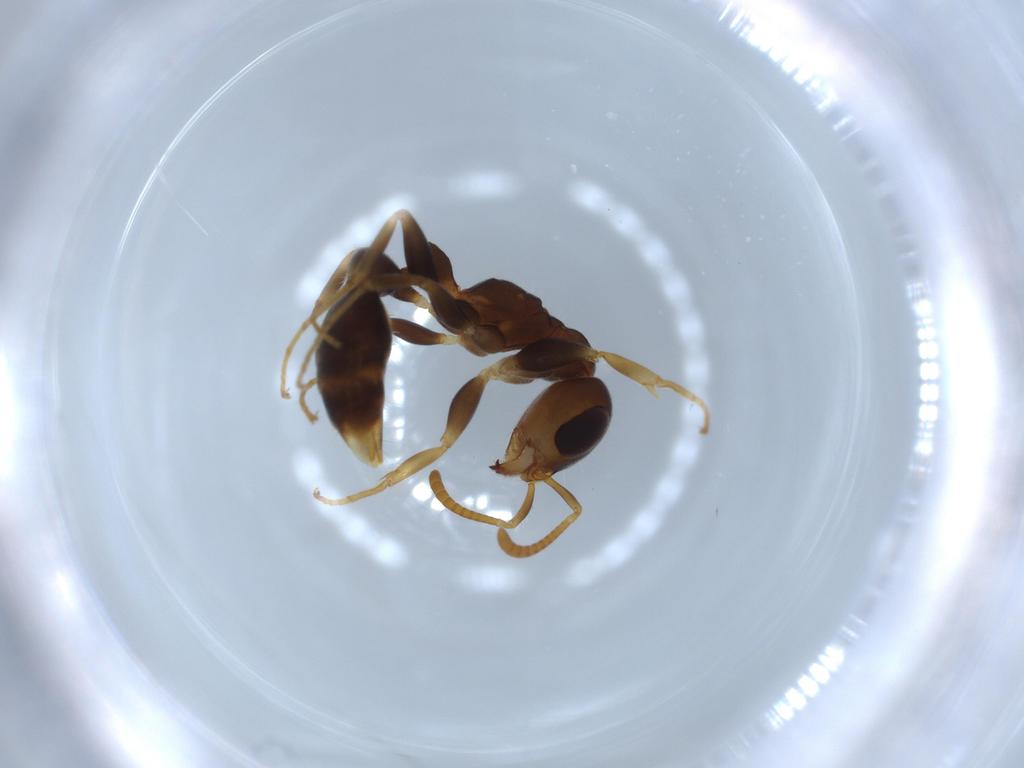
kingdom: Animalia
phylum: Arthropoda
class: Insecta
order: Hymenoptera
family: Formicidae
